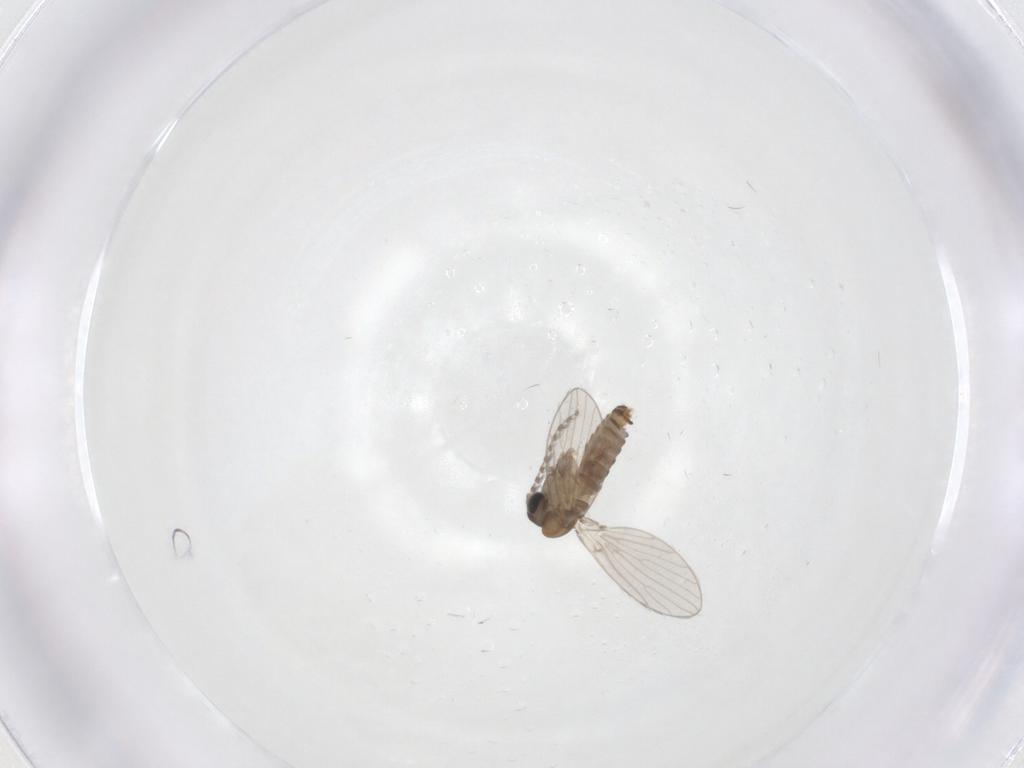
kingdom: Animalia
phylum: Arthropoda
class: Insecta
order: Diptera
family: Psychodidae
